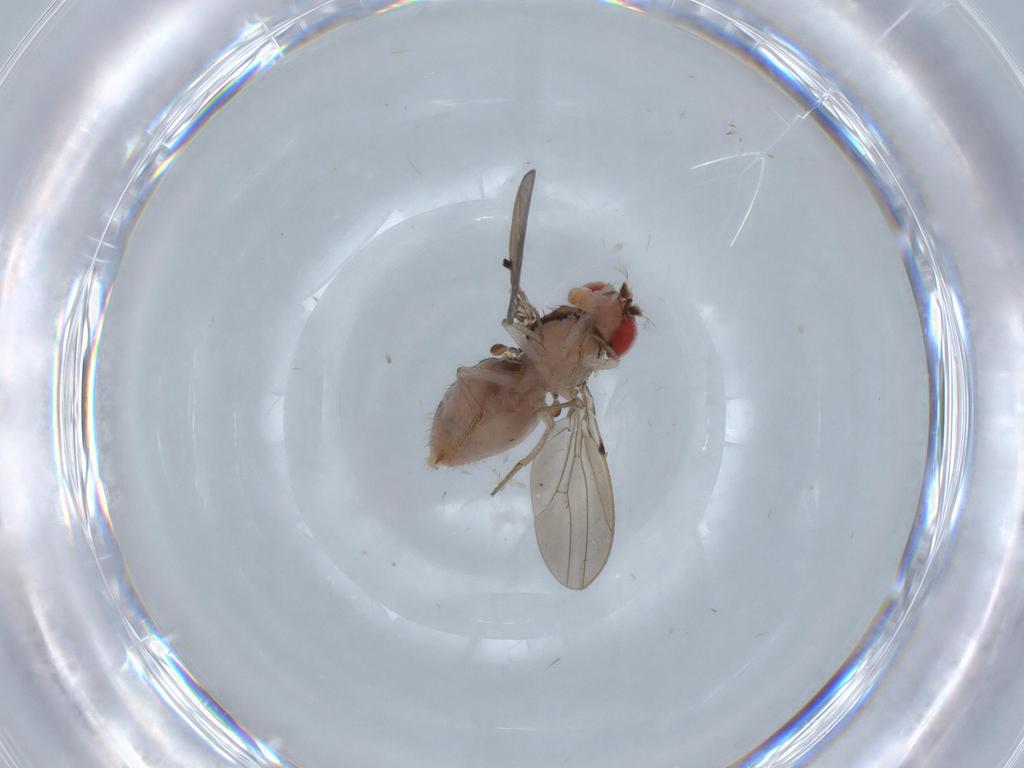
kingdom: Animalia
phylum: Arthropoda
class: Insecta
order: Diptera
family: Drosophilidae
